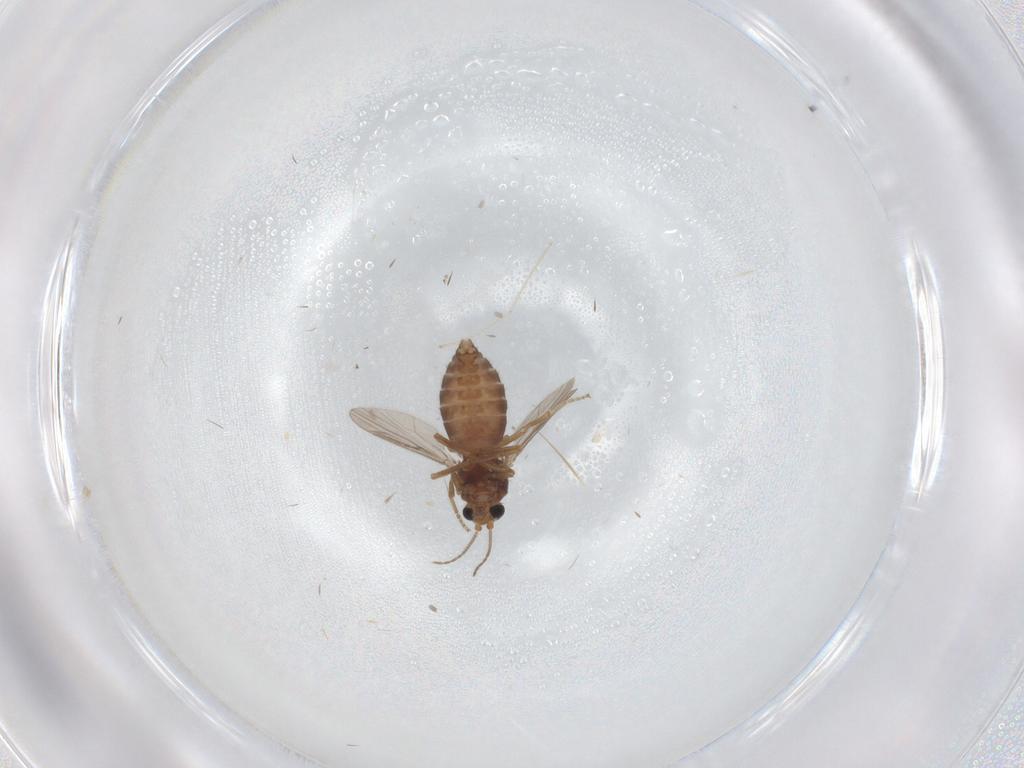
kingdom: Animalia
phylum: Arthropoda
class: Insecta
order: Diptera
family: Ceratopogonidae
